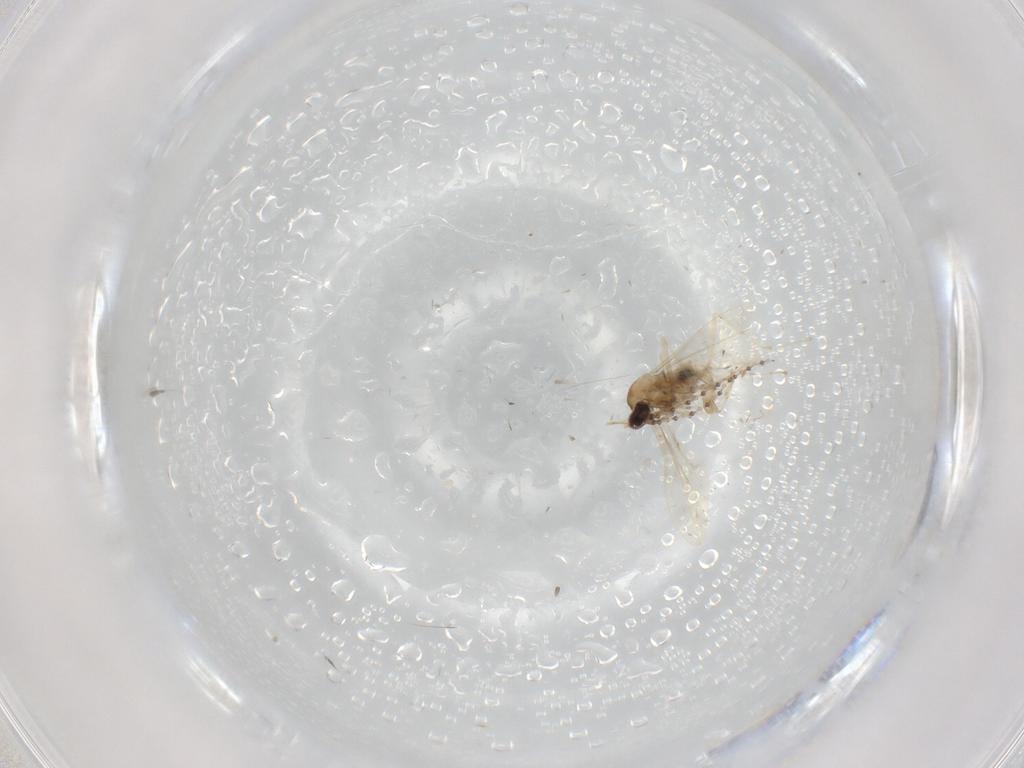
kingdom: Animalia
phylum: Arthropoda
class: Insecta
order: Diptera
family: Cecidomyiidae
